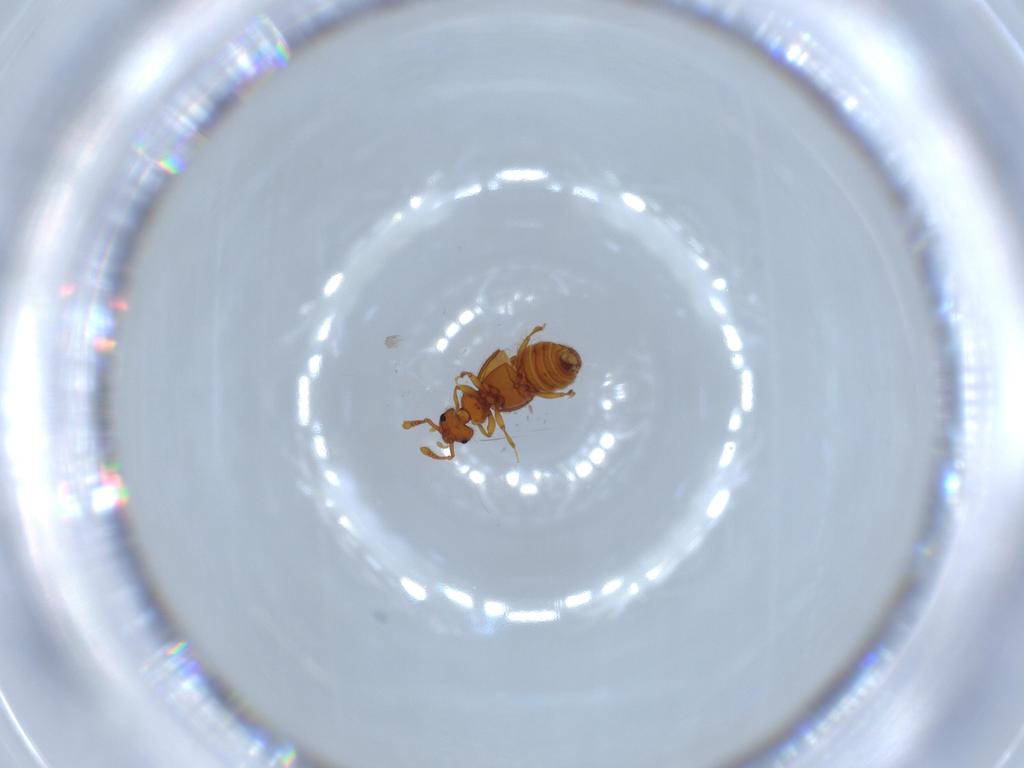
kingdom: Animalia
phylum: Arthropoda
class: Insecta
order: Coleoptera
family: Staphylinidae
